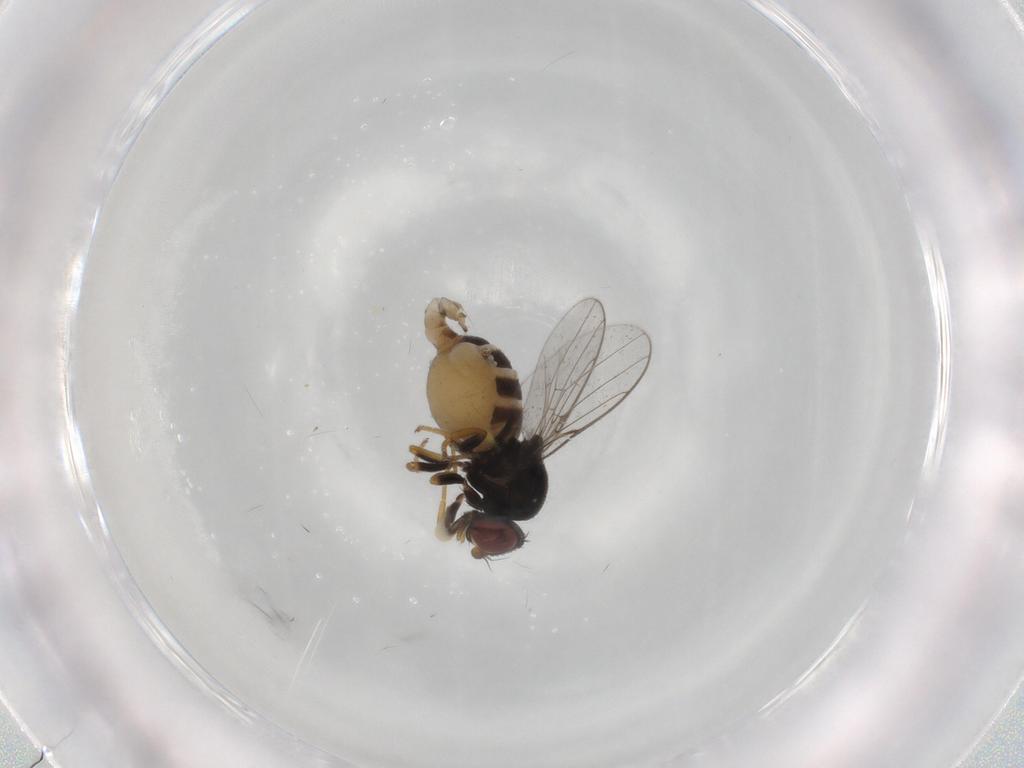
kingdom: Animalia
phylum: Arthropoda
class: Insecta
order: Diptera
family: Chloropidae
